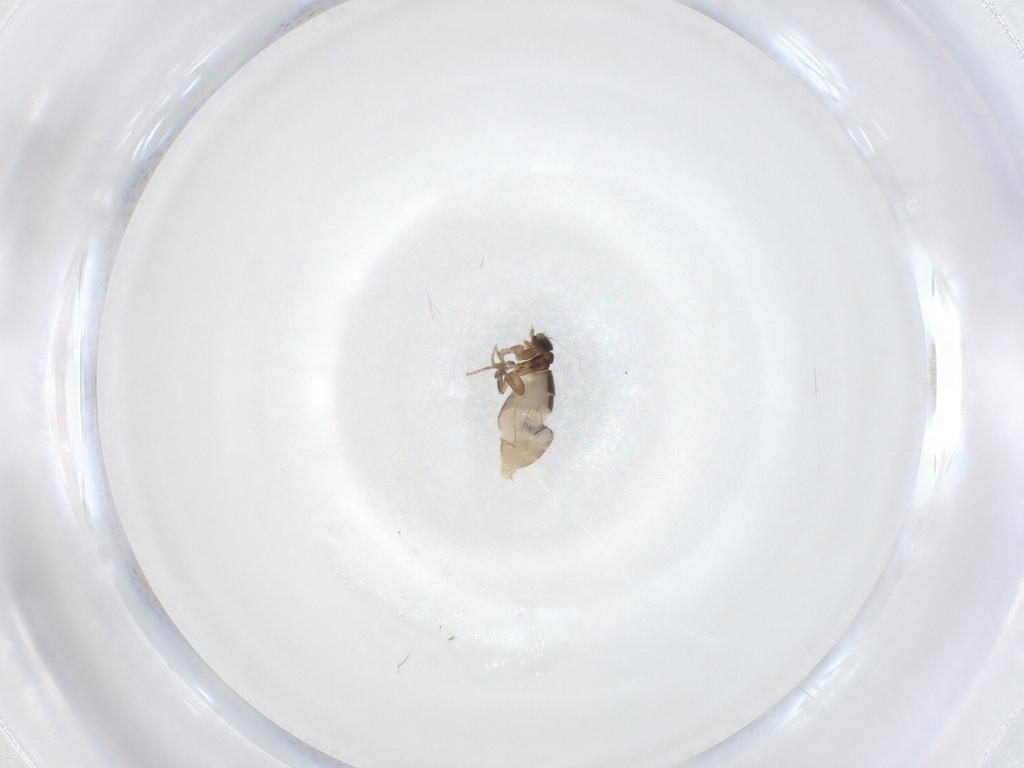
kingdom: Animalia
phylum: Arthropoda
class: Insecta
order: Diptera
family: Phoridae
